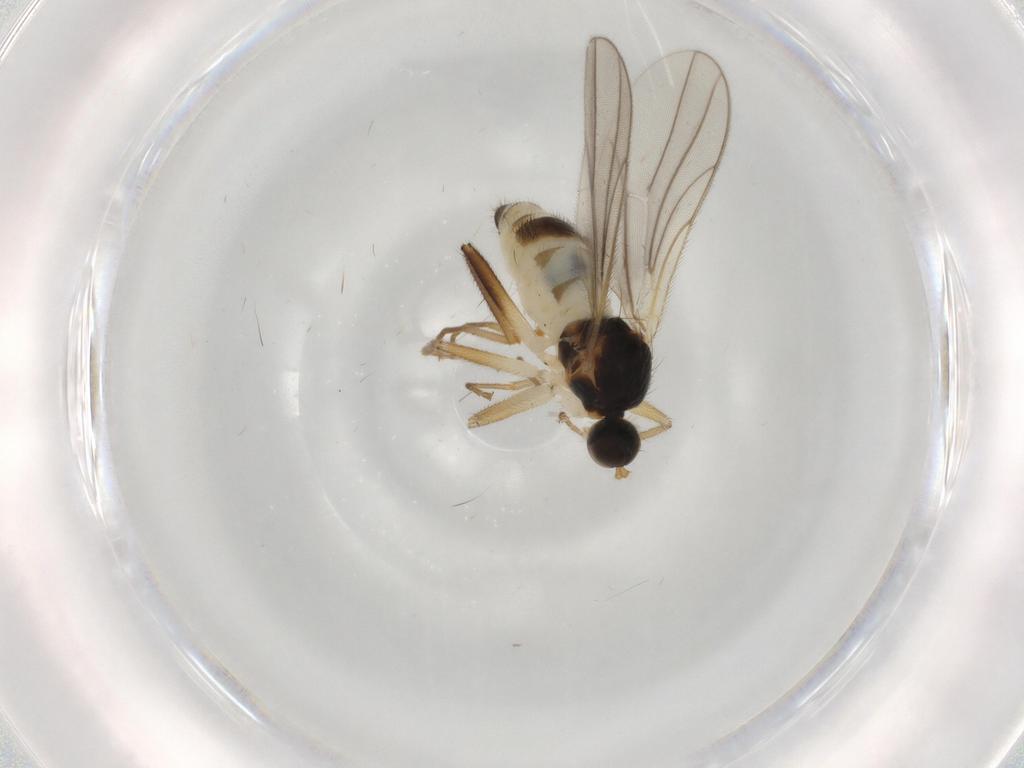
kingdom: Animalia
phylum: Arthropoda
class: Insecta
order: Diptera
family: Hybotidae
